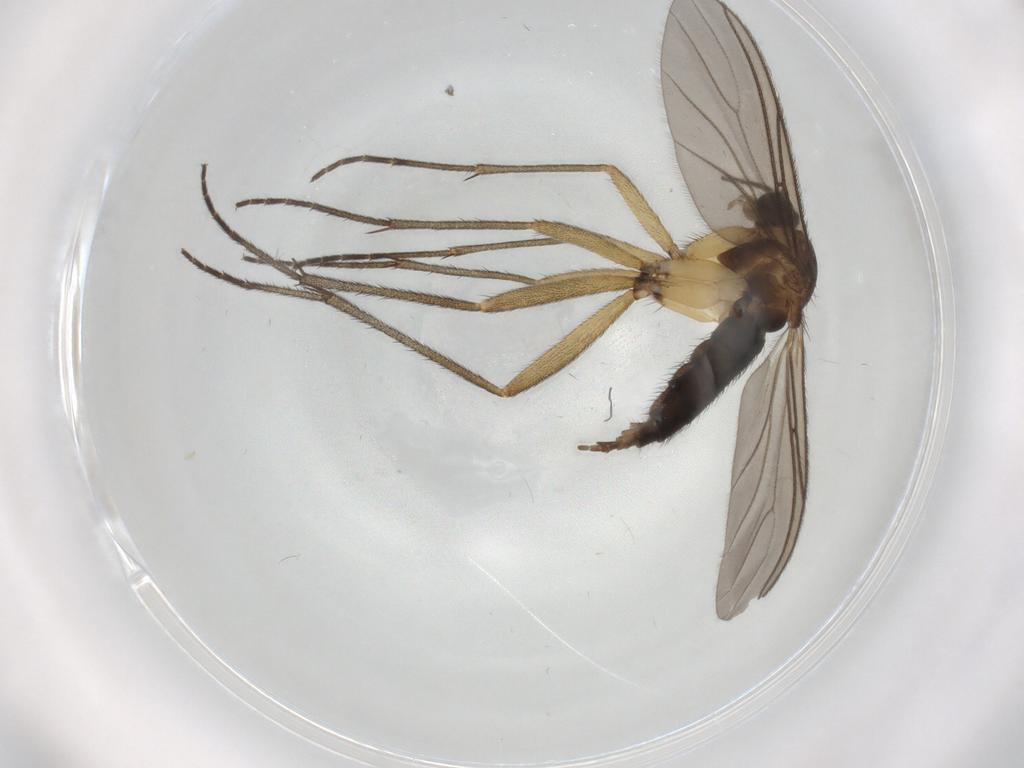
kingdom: Animalia
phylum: Arthropoda
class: Insecta
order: Diptera
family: Sciaridae
